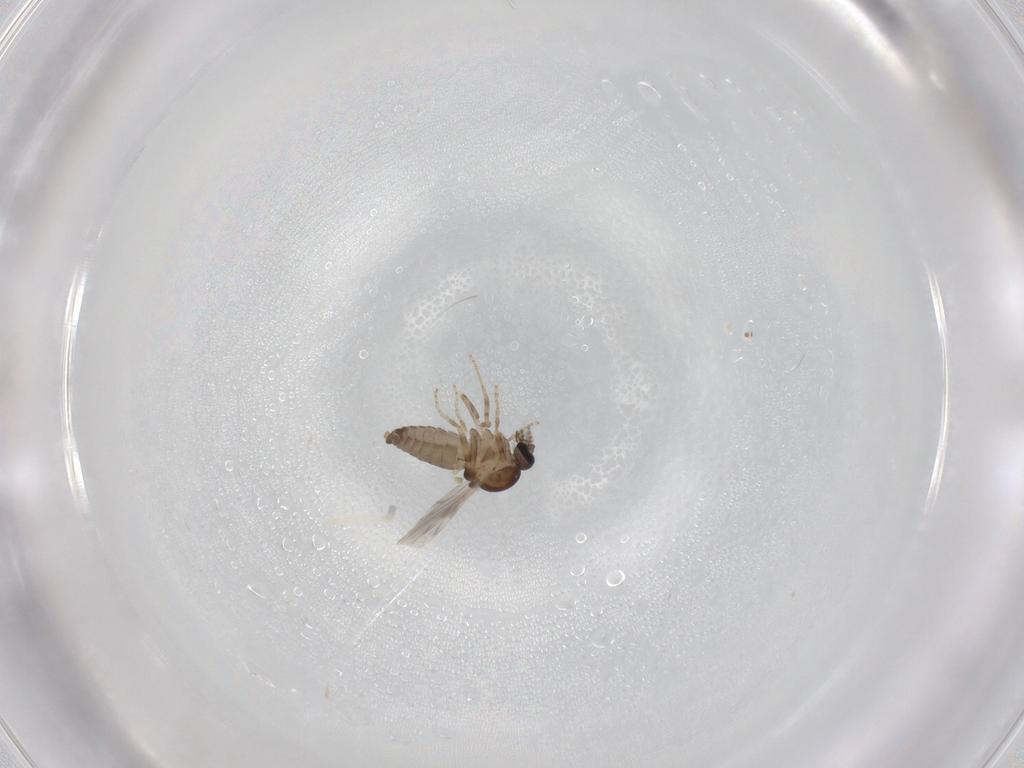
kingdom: Animalia
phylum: Arthropoda
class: Insecta
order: Diptera
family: Ceratopogonidae
